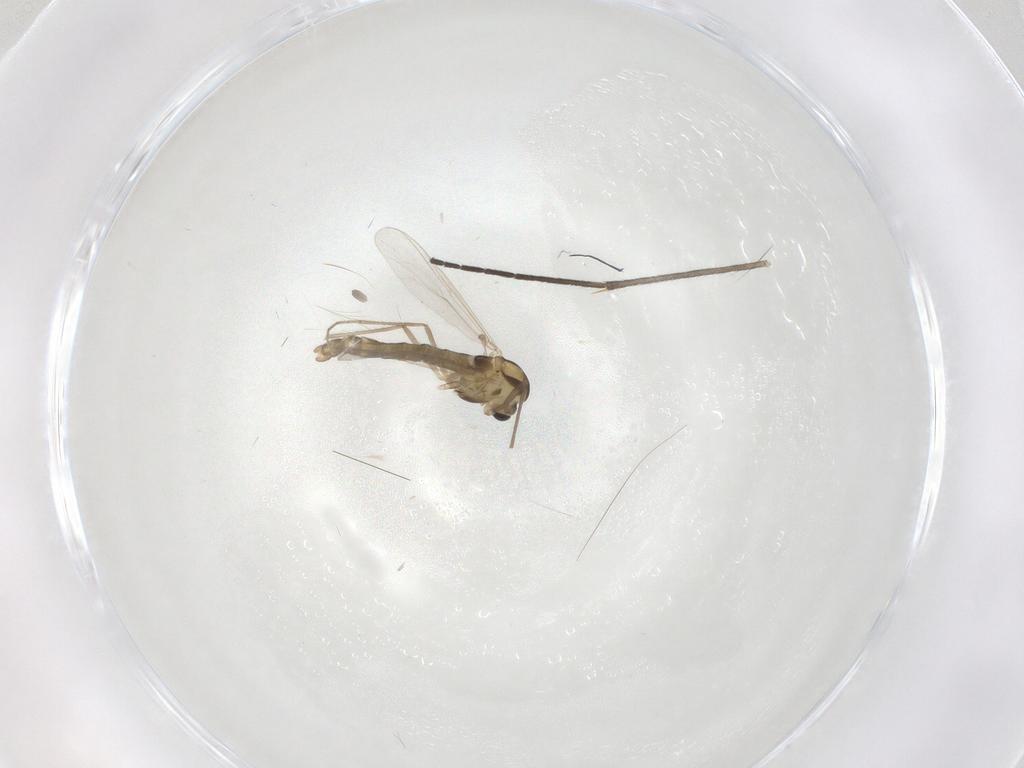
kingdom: Animalia
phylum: Arthropoda
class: Insecta
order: Diptera
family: Chironomidae
